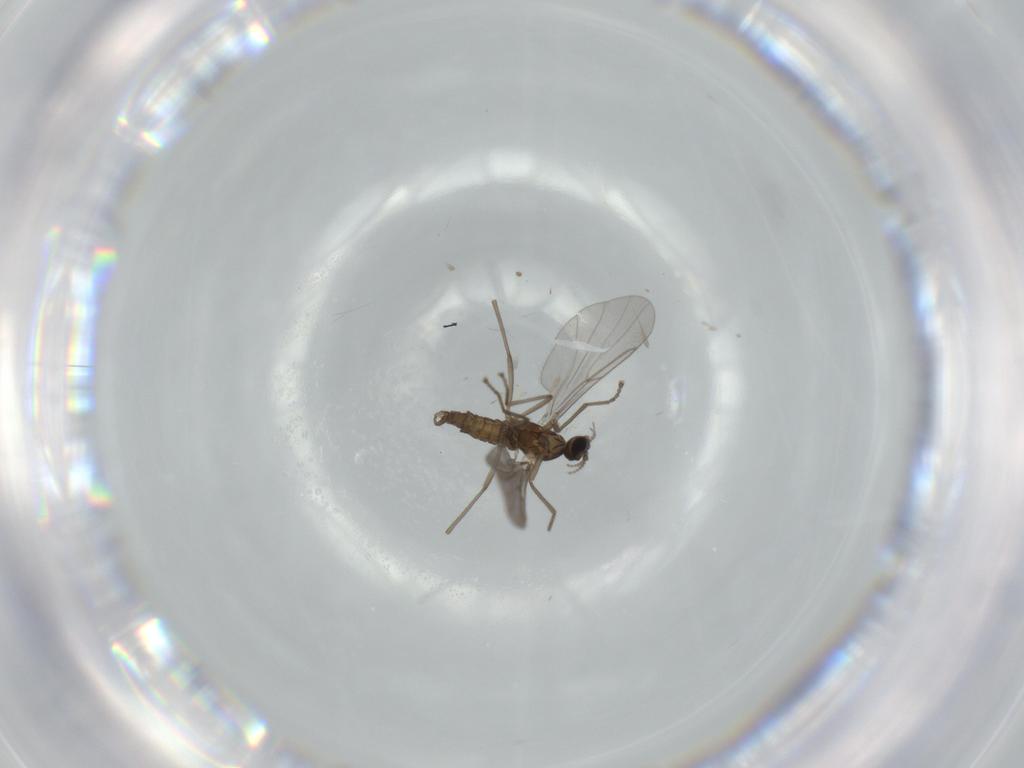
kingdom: Animalia
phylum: Arthropoda
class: Insecta
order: Diptera
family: Cecidomyiidae
